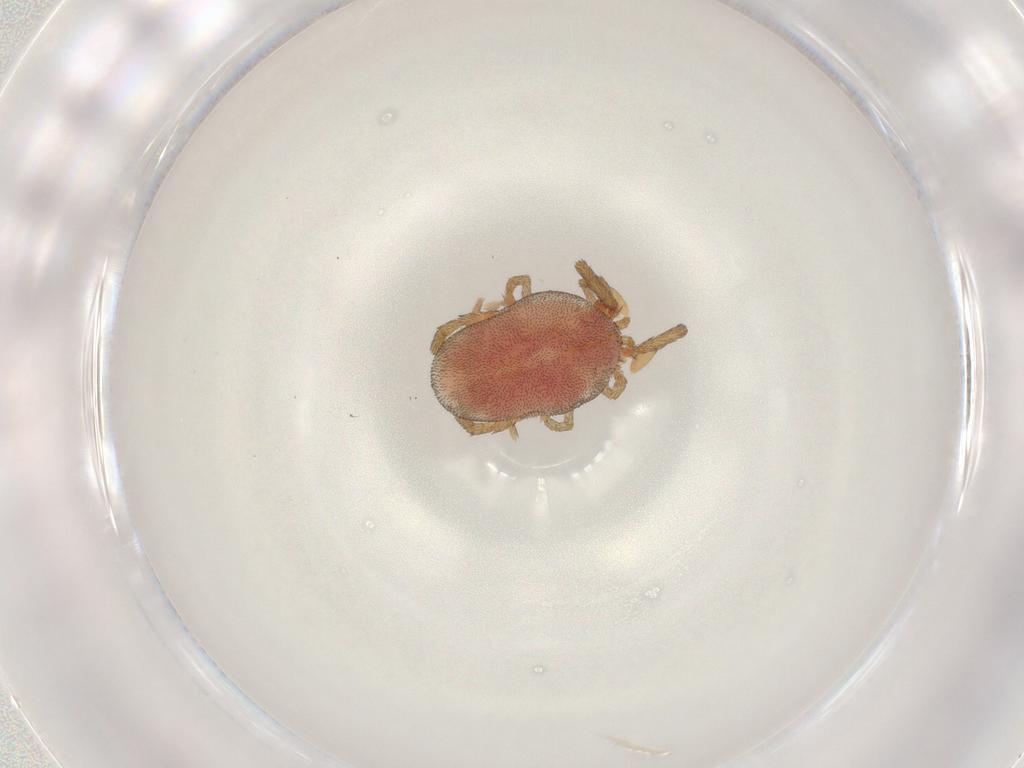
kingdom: Animalia
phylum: Arthropoda
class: Arachnida
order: Trombidiformes
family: Erythraeidae
